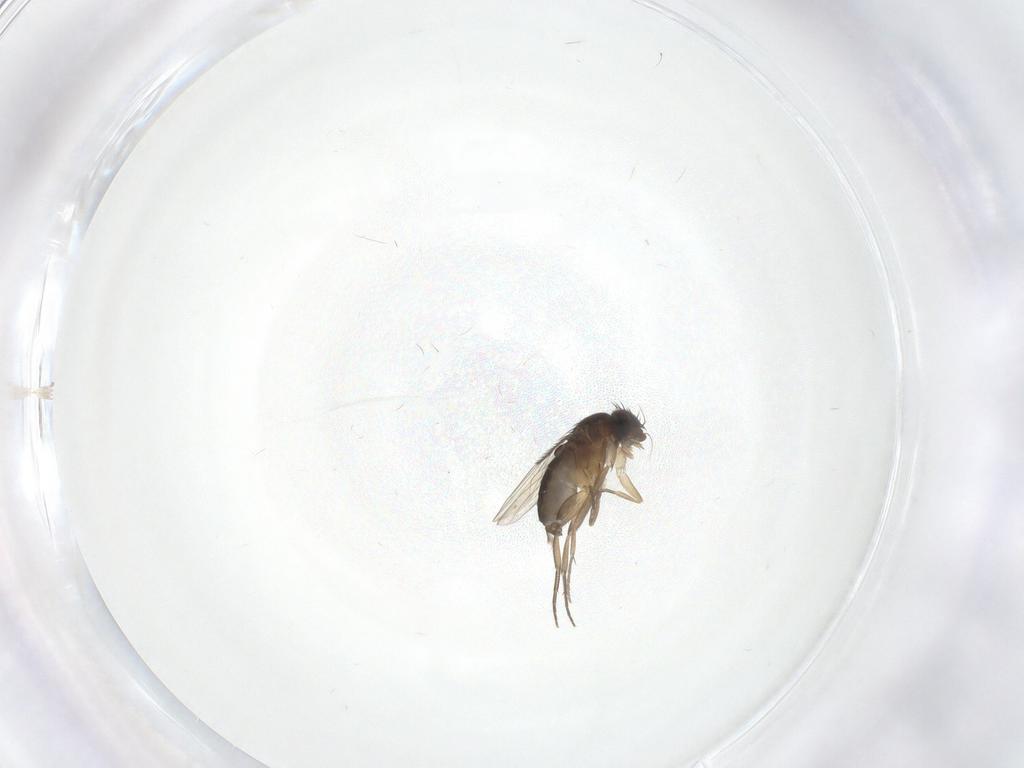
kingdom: Animalia
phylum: Arthropoda
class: Insecta
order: Diptera
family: Phoridae
